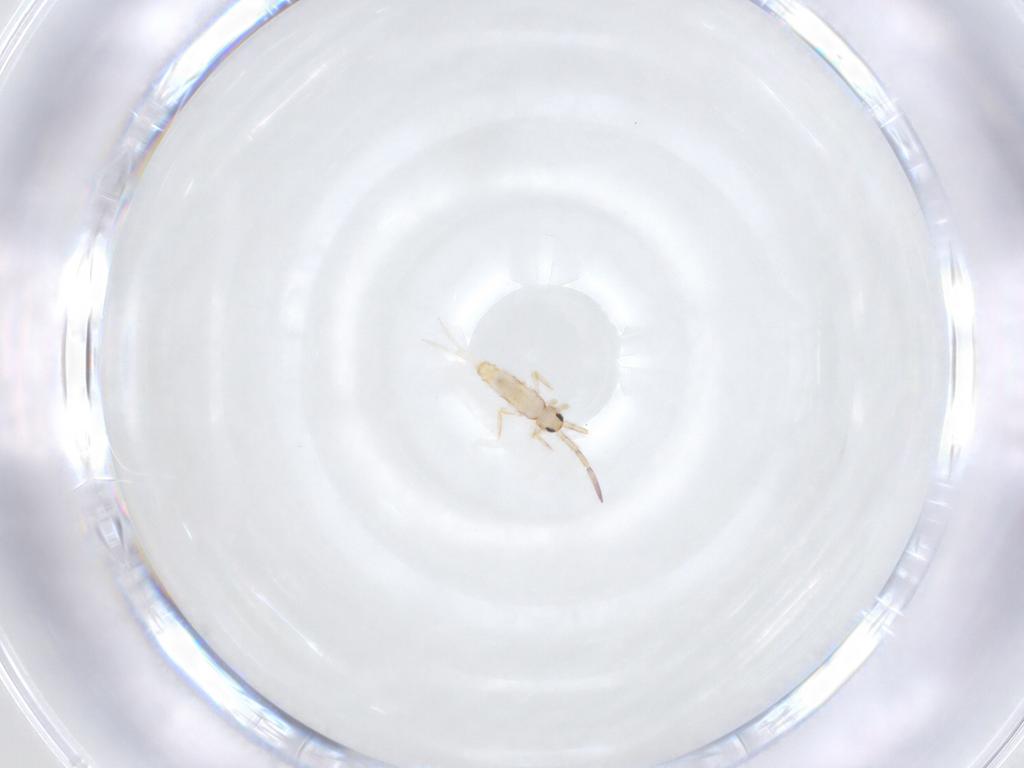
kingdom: Animalia
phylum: Arthropoda
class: Collembola
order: Entomobryomorpha
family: Entomobryidae
